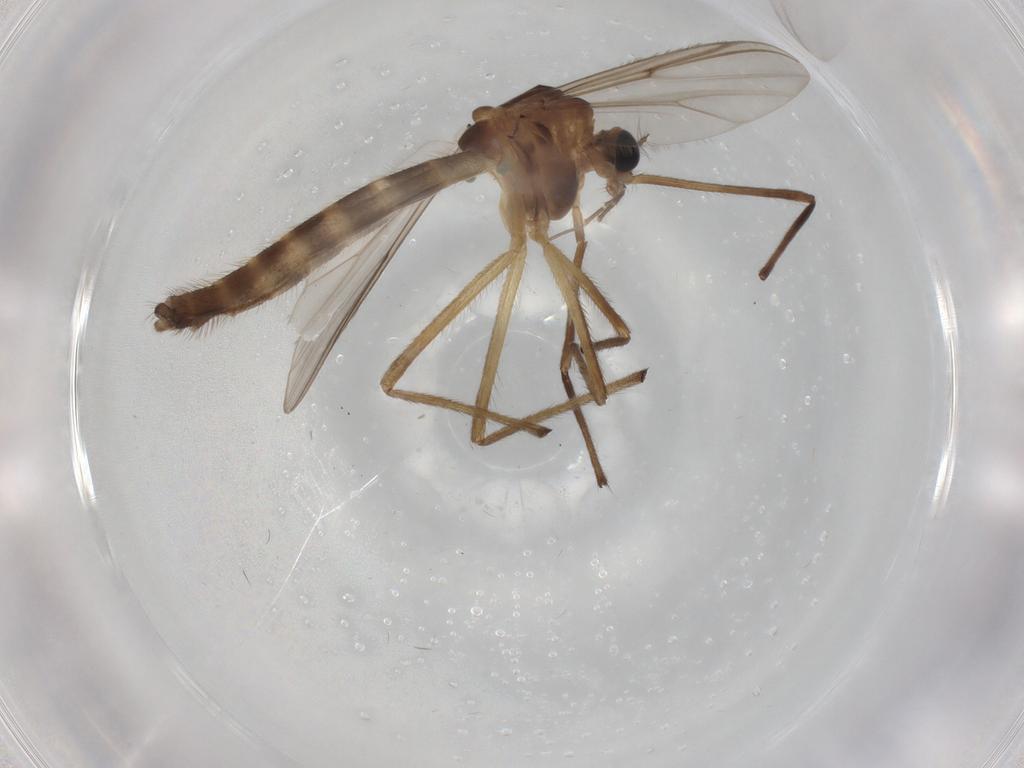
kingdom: Animalia
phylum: Arthropoda
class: Insecta
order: Diptera
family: Chironomidae
